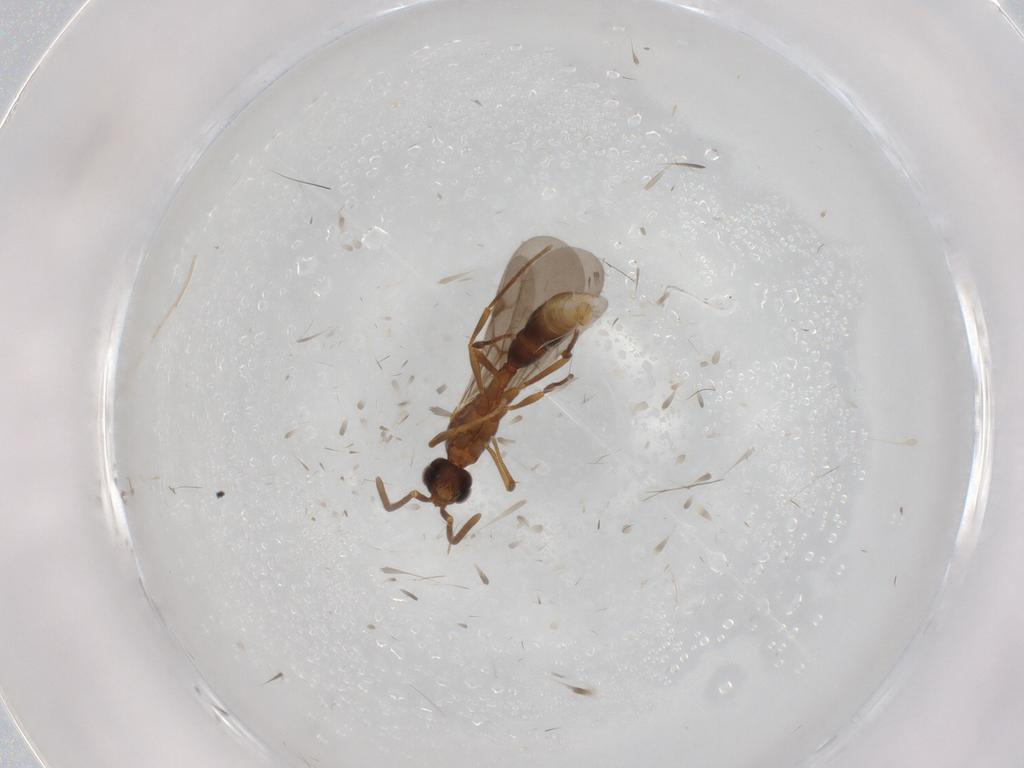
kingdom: Animalia
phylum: Arthropoda
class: Insecta
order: Hymenoptera
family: Formicidae
